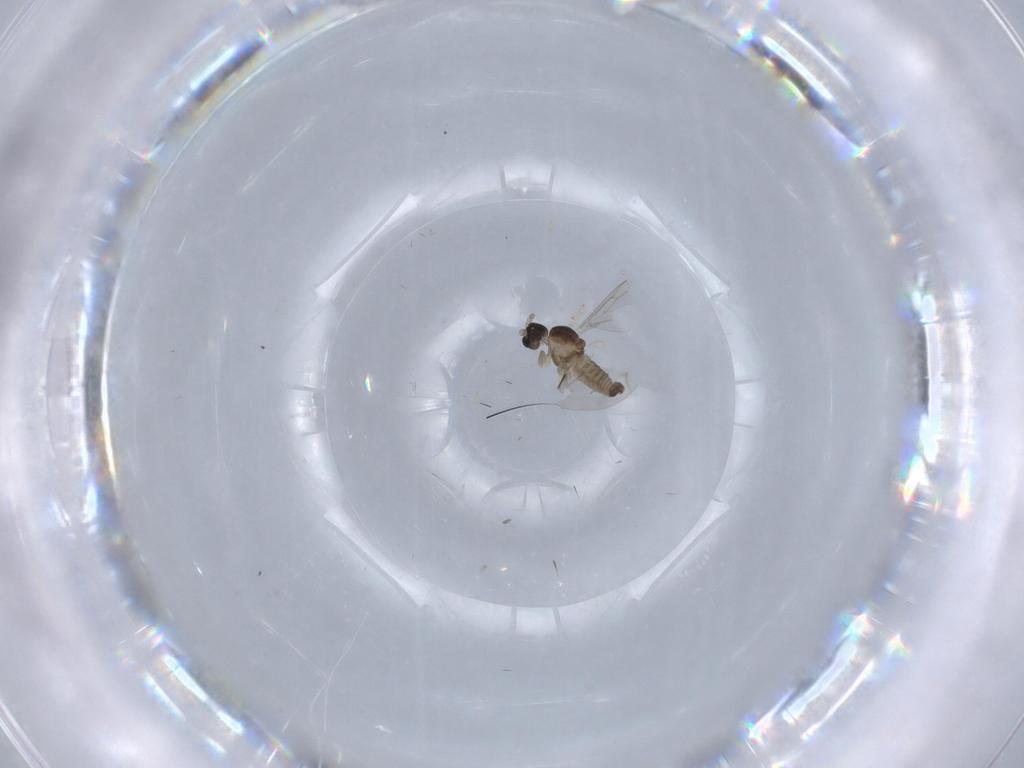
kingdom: Animalia
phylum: Arthropoda
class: Insecta
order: Diptera
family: Cecidomyiidae
